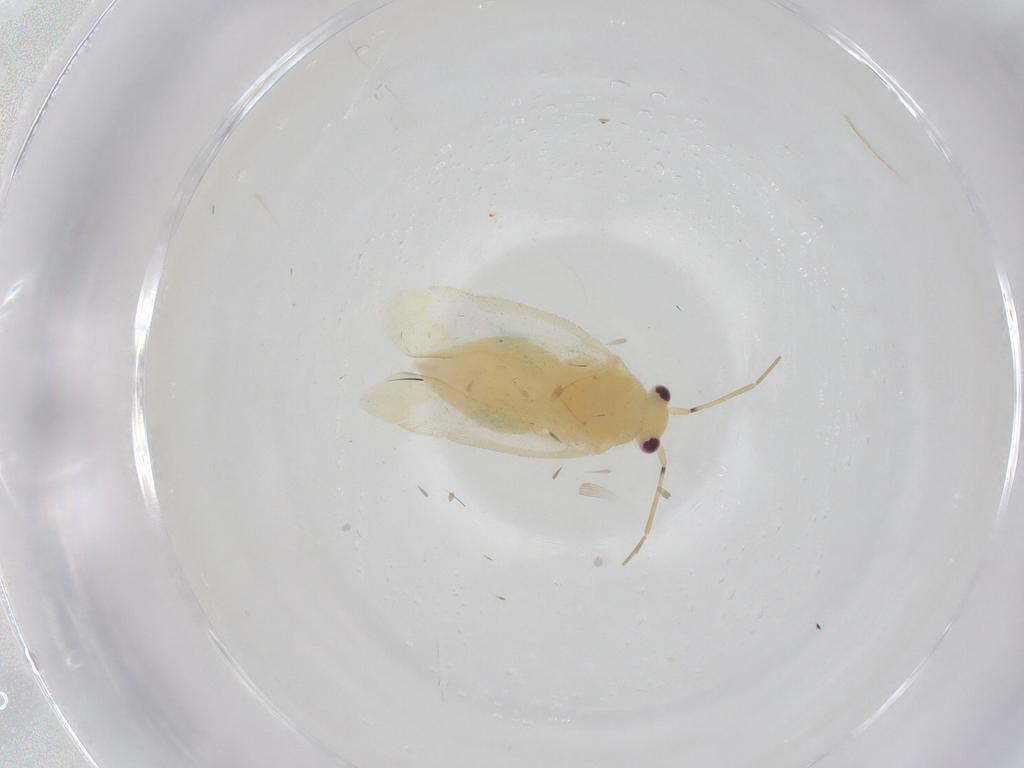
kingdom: Animalia
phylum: Arthropoda
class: Insecta
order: Hemiptera
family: Miridae
